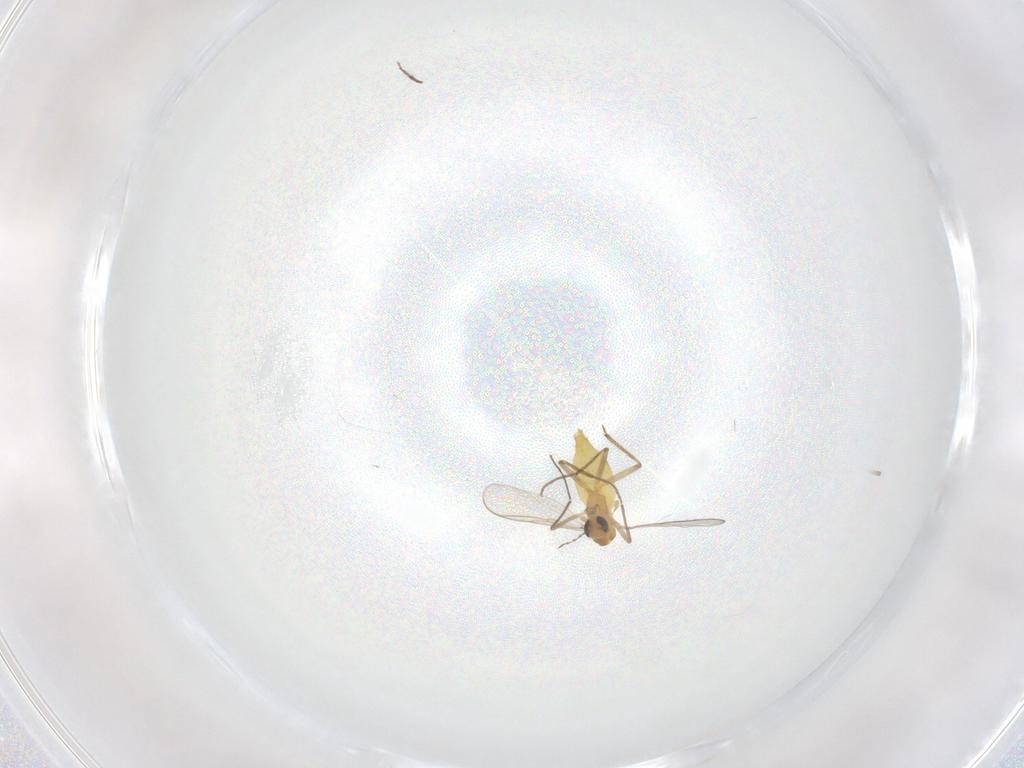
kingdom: Animalia
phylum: Arthropoda
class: Insecta
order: Diptera
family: Chironomidae
